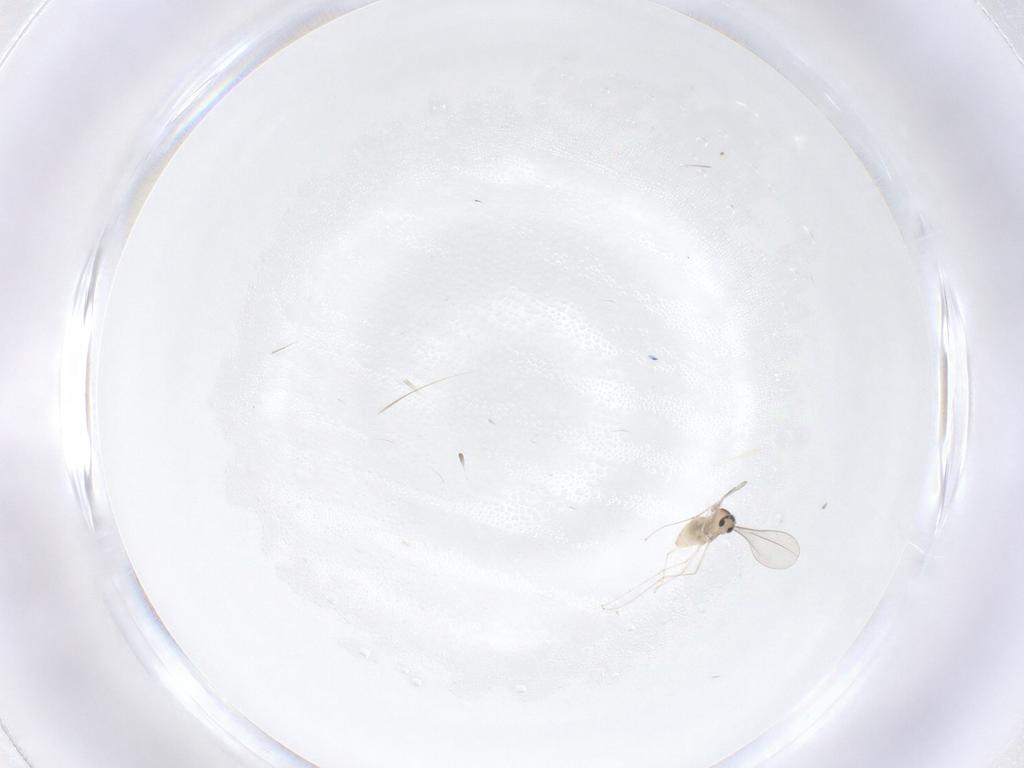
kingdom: Animalia
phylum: Arthropoda
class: Insecta
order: Diptera
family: Cecidomyiidae
